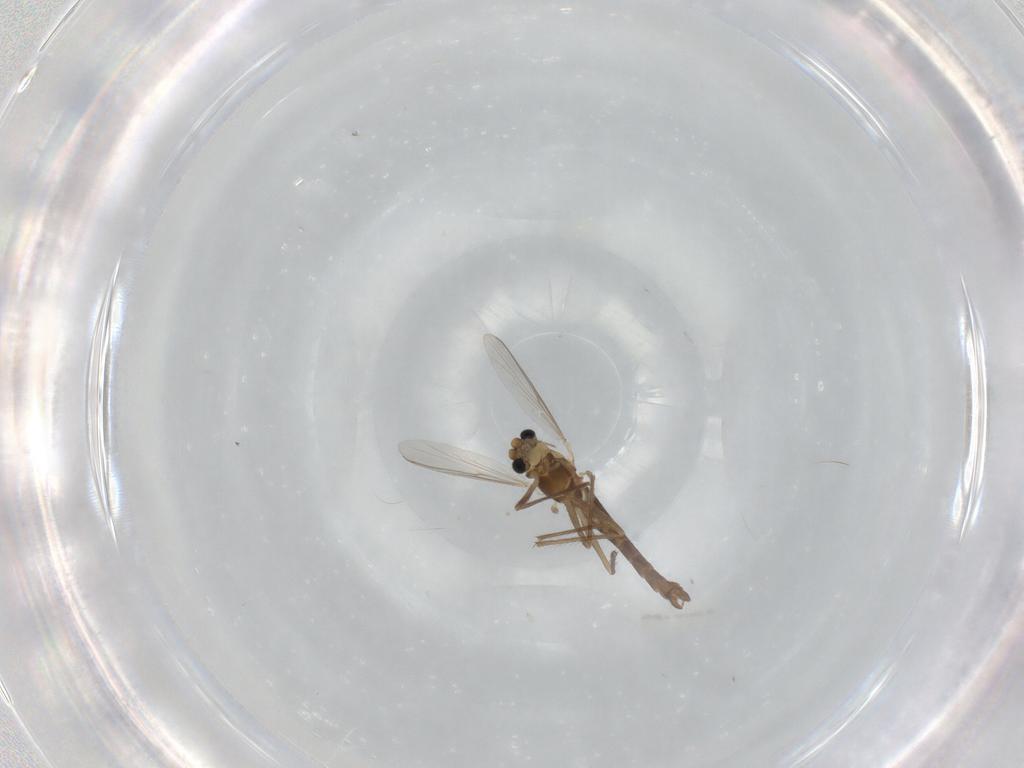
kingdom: Animalia
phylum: Arthropoda
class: Insecta
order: Diptera
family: Chironomidae
